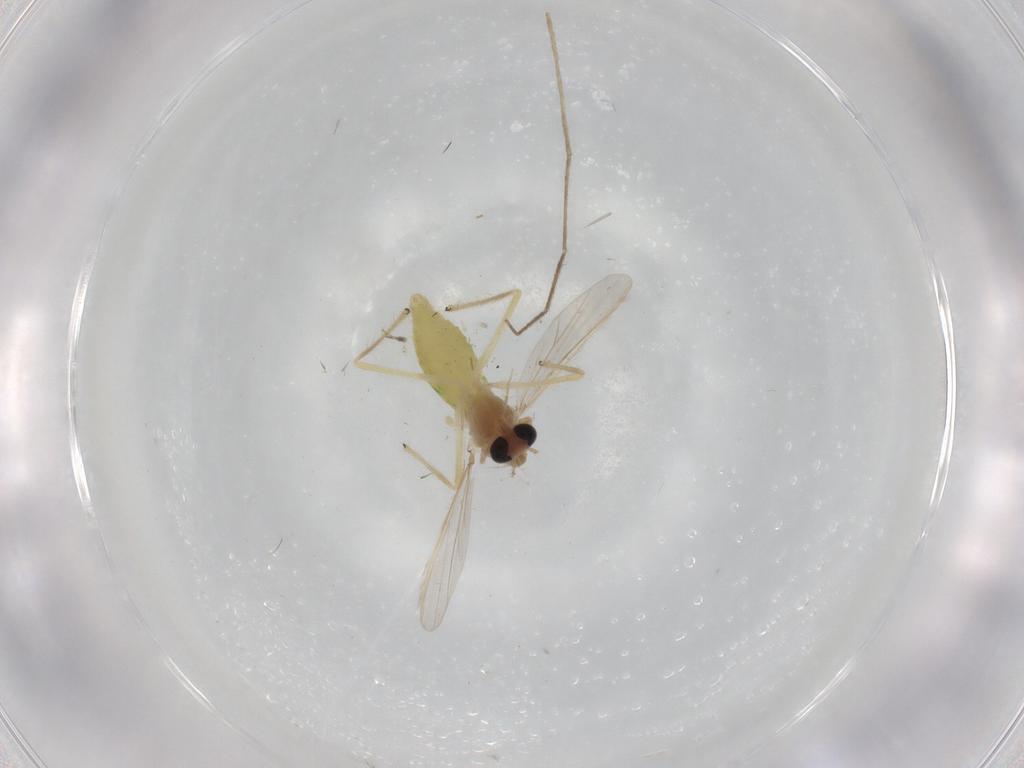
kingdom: Animalia
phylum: Arthropoda
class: Insecta
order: Diptera
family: Chironomidae
